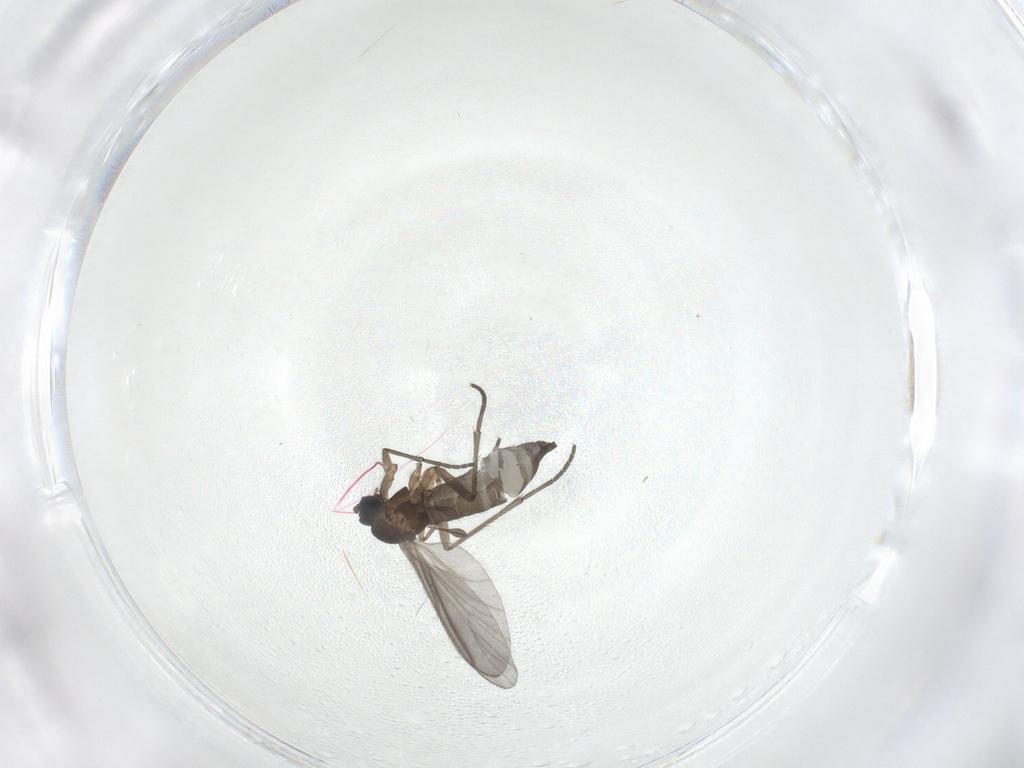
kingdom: Animalia
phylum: Arthropoda
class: Insecta
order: Diptera
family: Sciaridae
